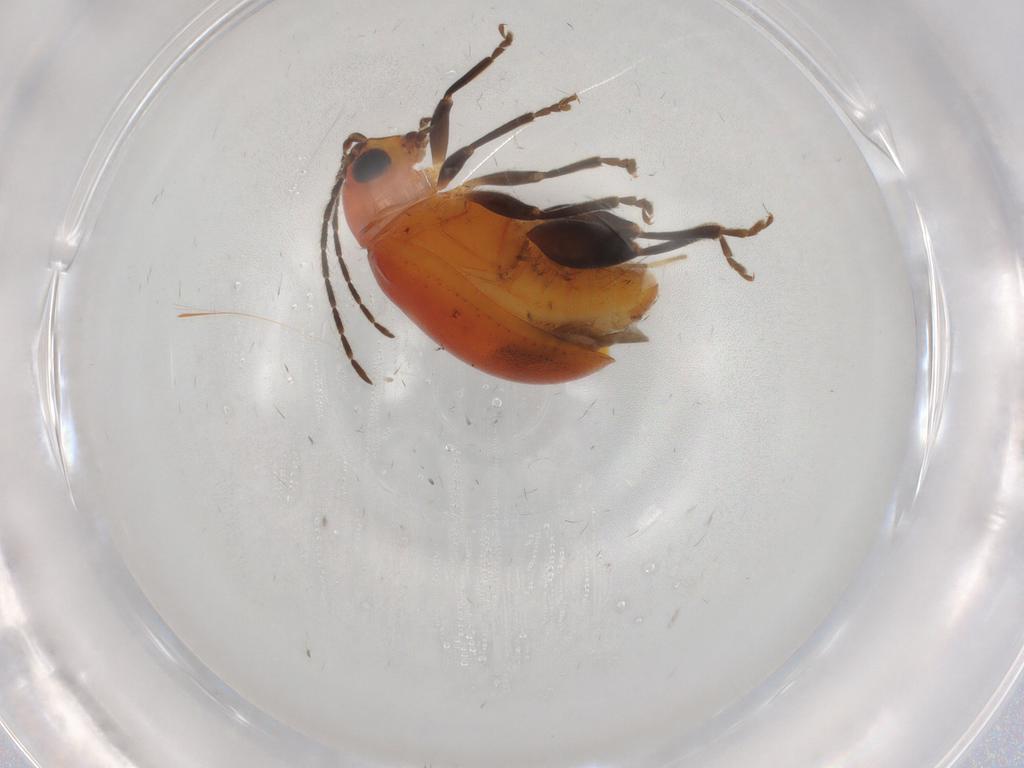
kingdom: Animalia
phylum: Arthropoda
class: Insecta
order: Coleoptera
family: Chrysomelidae
